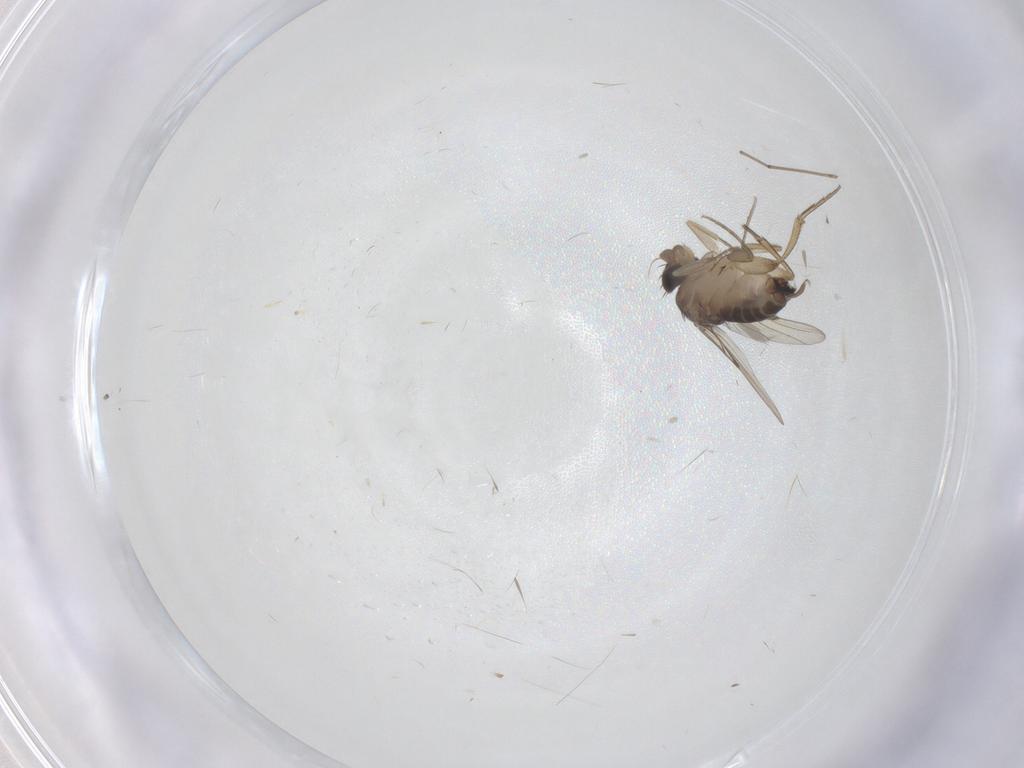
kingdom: Animalia
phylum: Arthropoda
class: Insecta
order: Diptera
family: Phoridae
